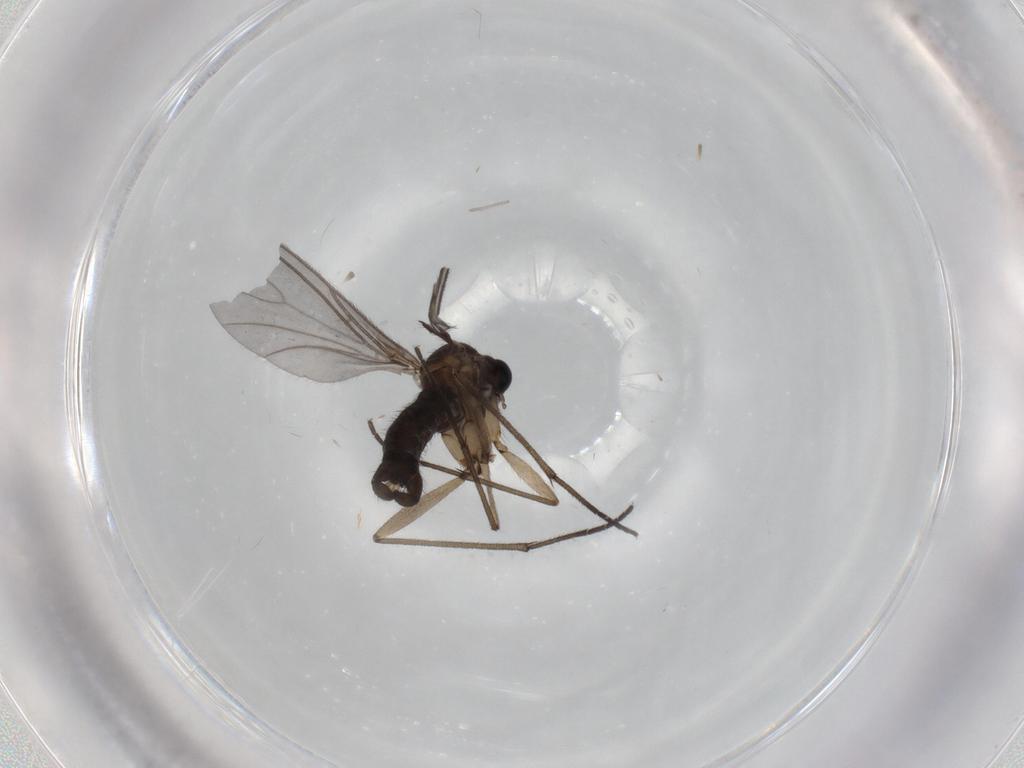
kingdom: Animalia
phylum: Arthropoda
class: Insecta
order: Diptera
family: Sciaridae
